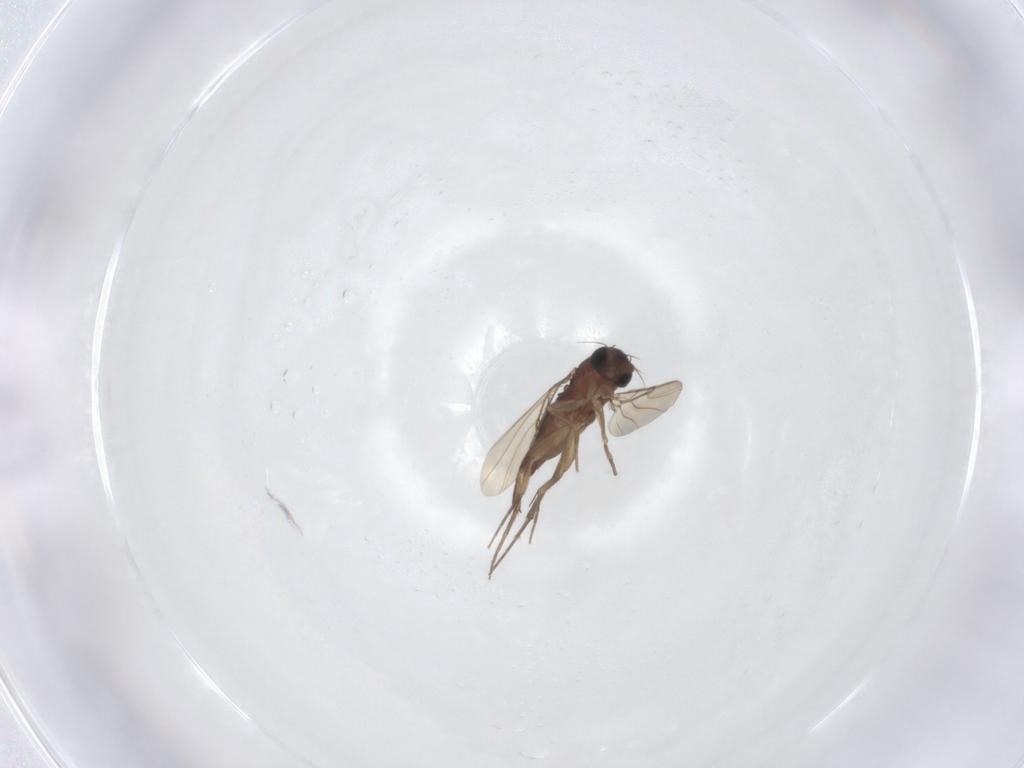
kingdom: Animalia
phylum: Arthropoda
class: Insecta
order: Diptera
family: Phoridae
